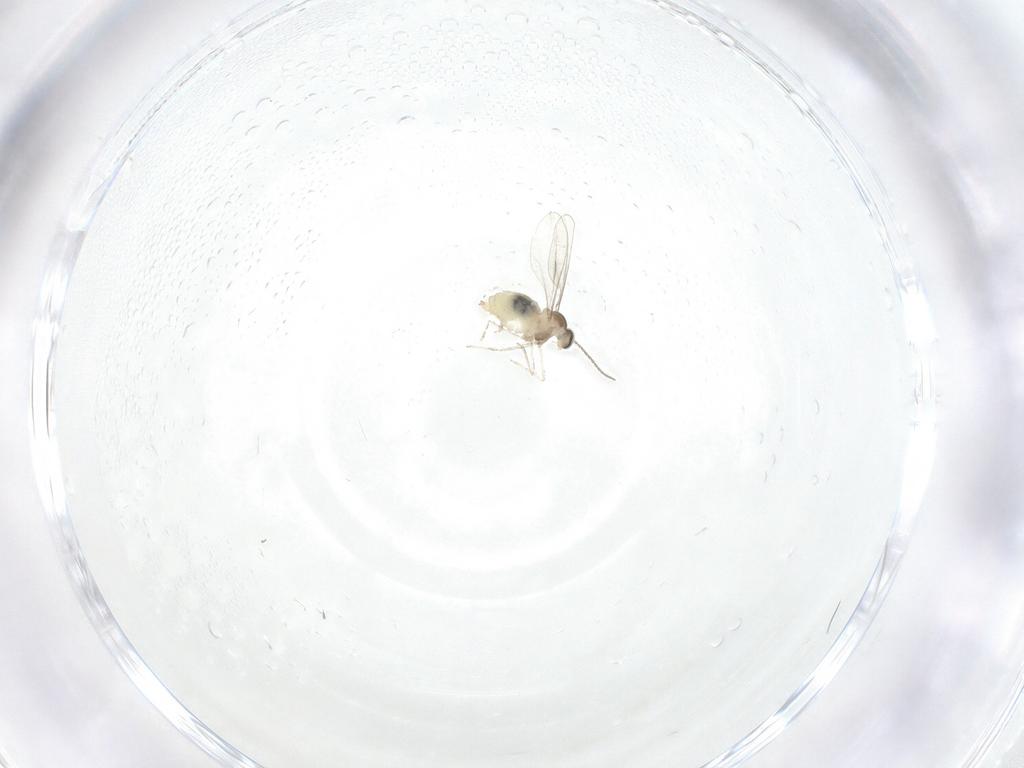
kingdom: Animalia
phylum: Arthropoda
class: Insecta
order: Diptera
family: Cecidomyiidae
